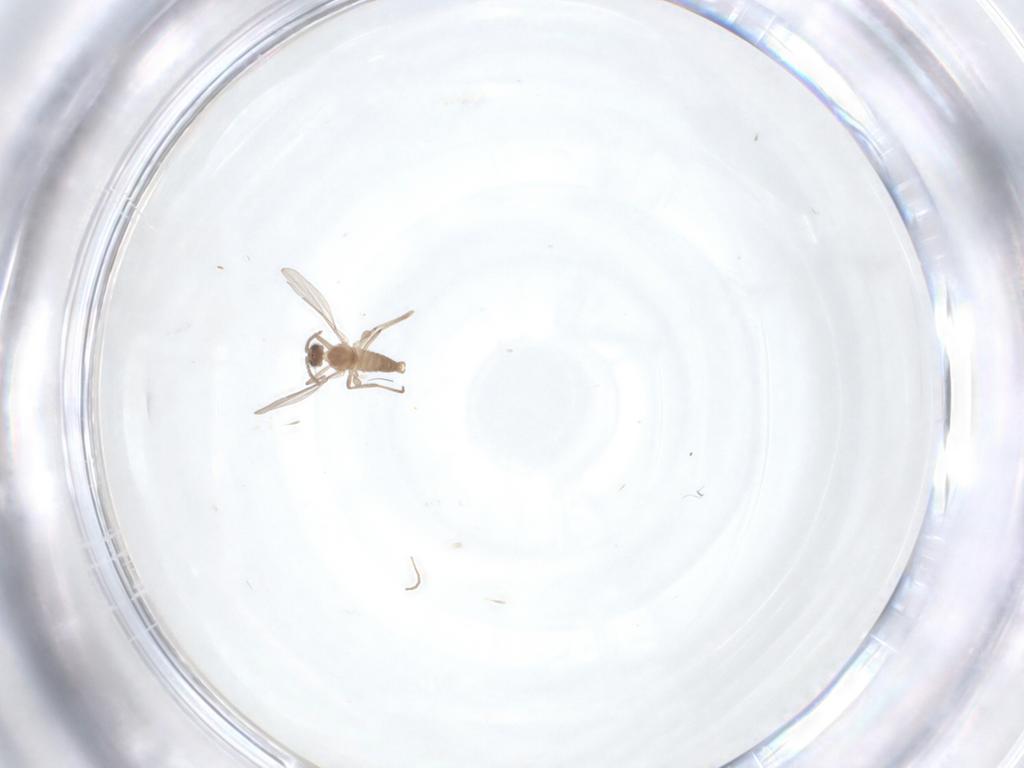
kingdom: Animalia
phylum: Arthropoda
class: Insecta
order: Diptera
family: Cecidomyiidae
